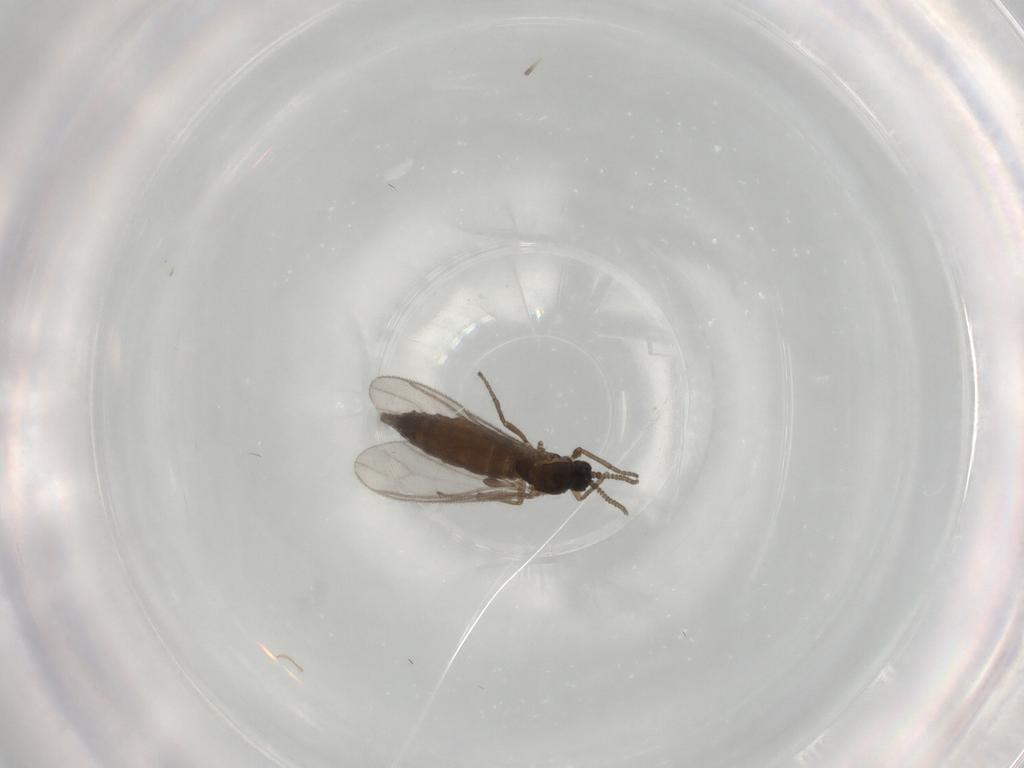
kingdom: Animalia
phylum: Arthropoda
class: Insecta
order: Diptera
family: Sciaridae
